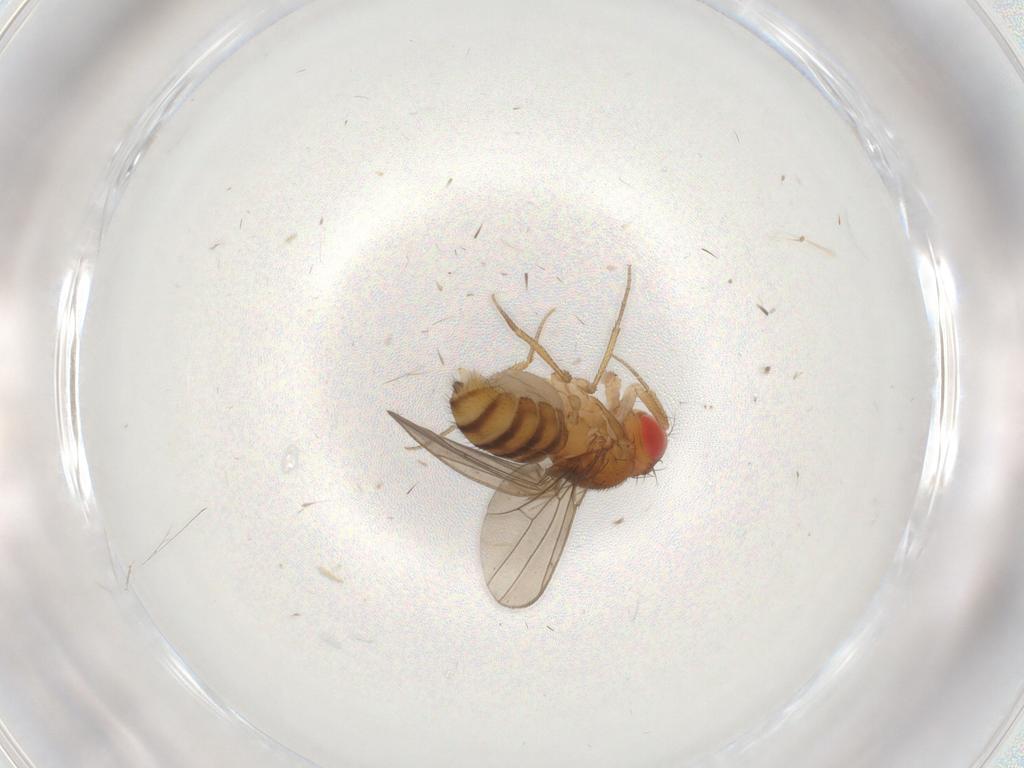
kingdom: Animalia
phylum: Arthropoda
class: Insecta
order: Diptera
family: Drosophilidae
